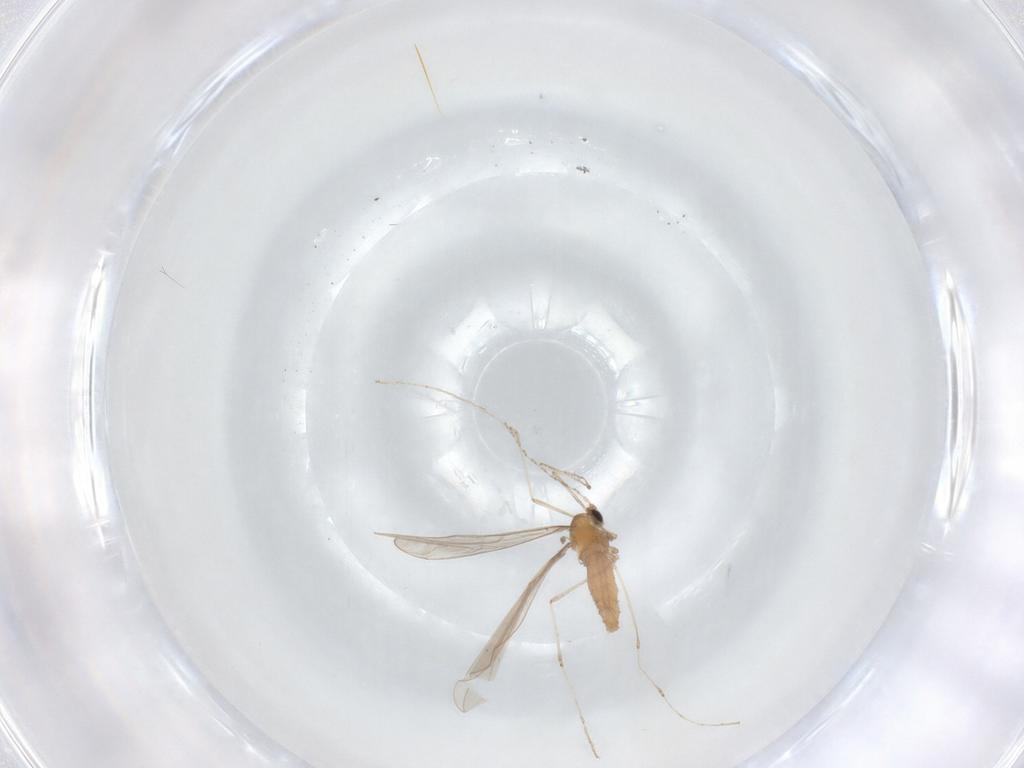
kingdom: Animalia
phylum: Arthropoda
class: Insecta
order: Diptera
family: Cecidomyiidae
